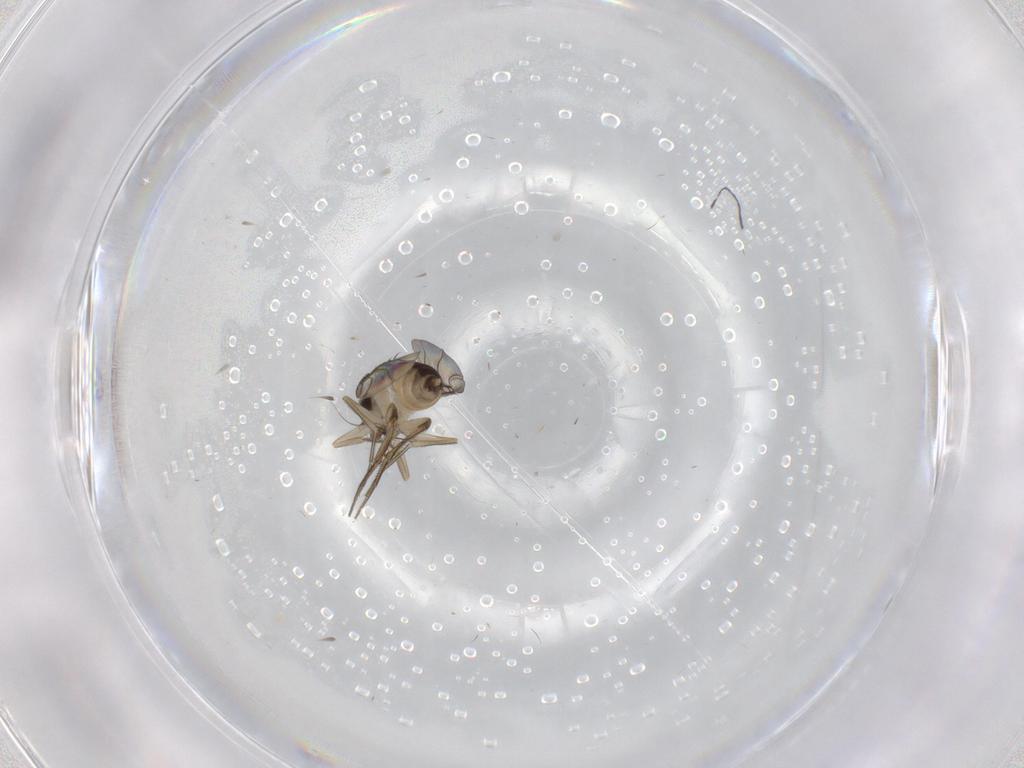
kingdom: Animalia
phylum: Arthropoda
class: Insecta
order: Diptera
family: Phoridae
